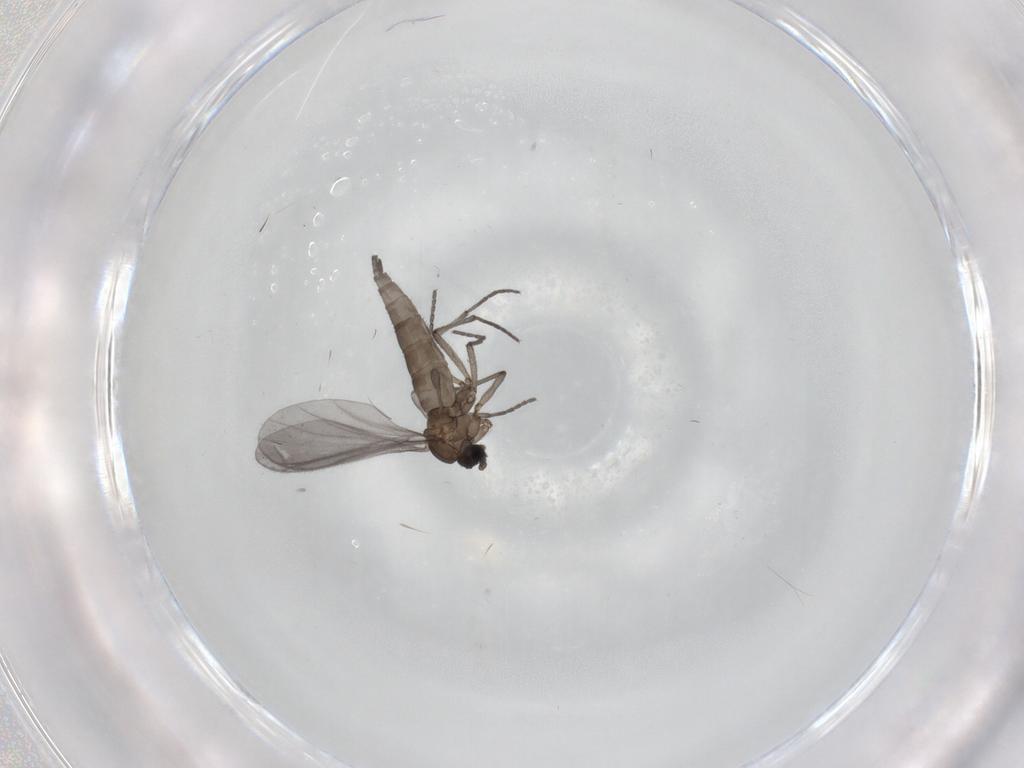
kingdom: Animalia
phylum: Arthropoda
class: Insecta
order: Diptera
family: Sciaridae
